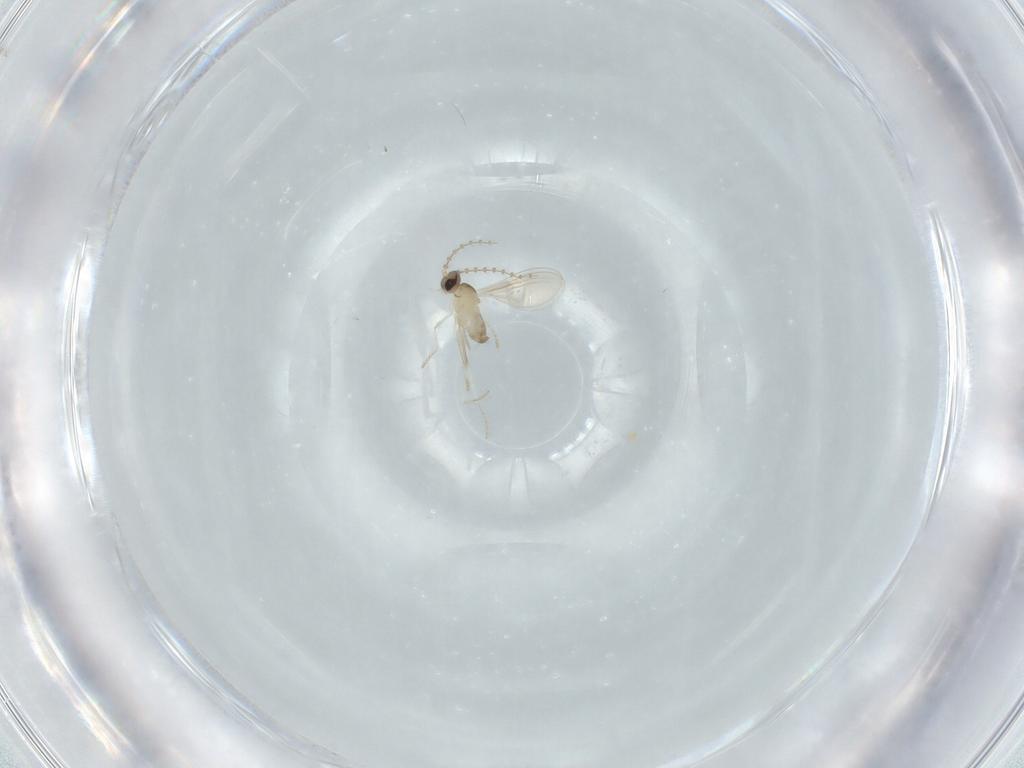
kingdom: Animalia
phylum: Arthropoda
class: Insecta
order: Diptera
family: Cecidomyiidae
